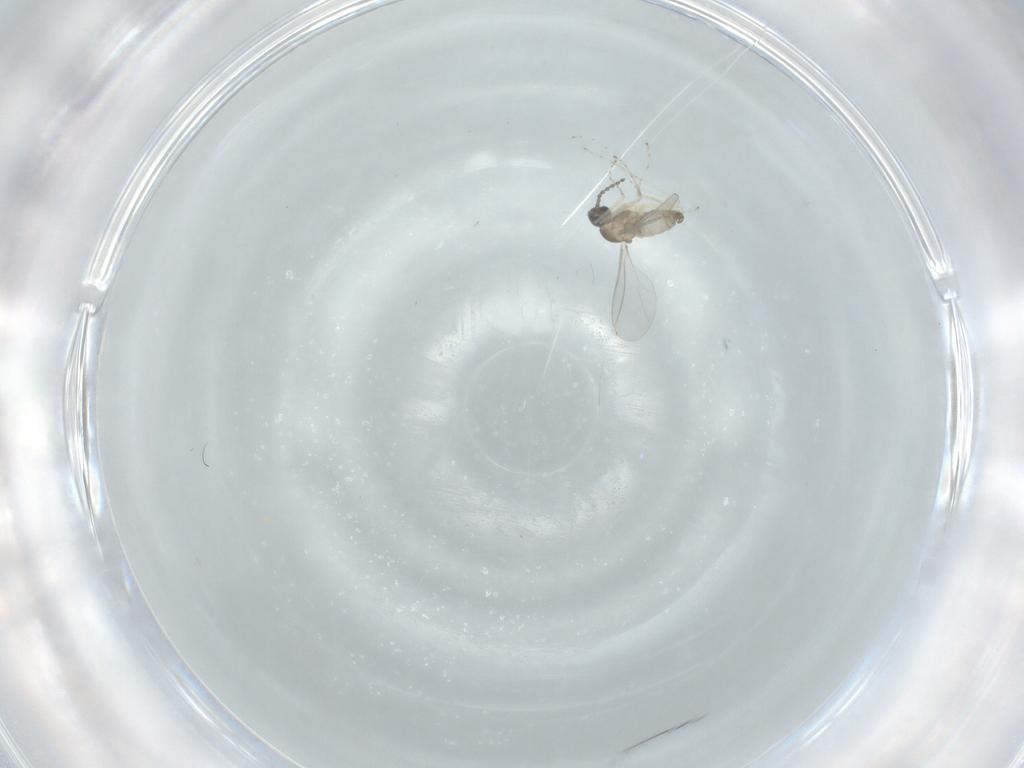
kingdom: Animalia
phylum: Arthropoda
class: Insecta
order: Diptera
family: Cecidomyiidae
